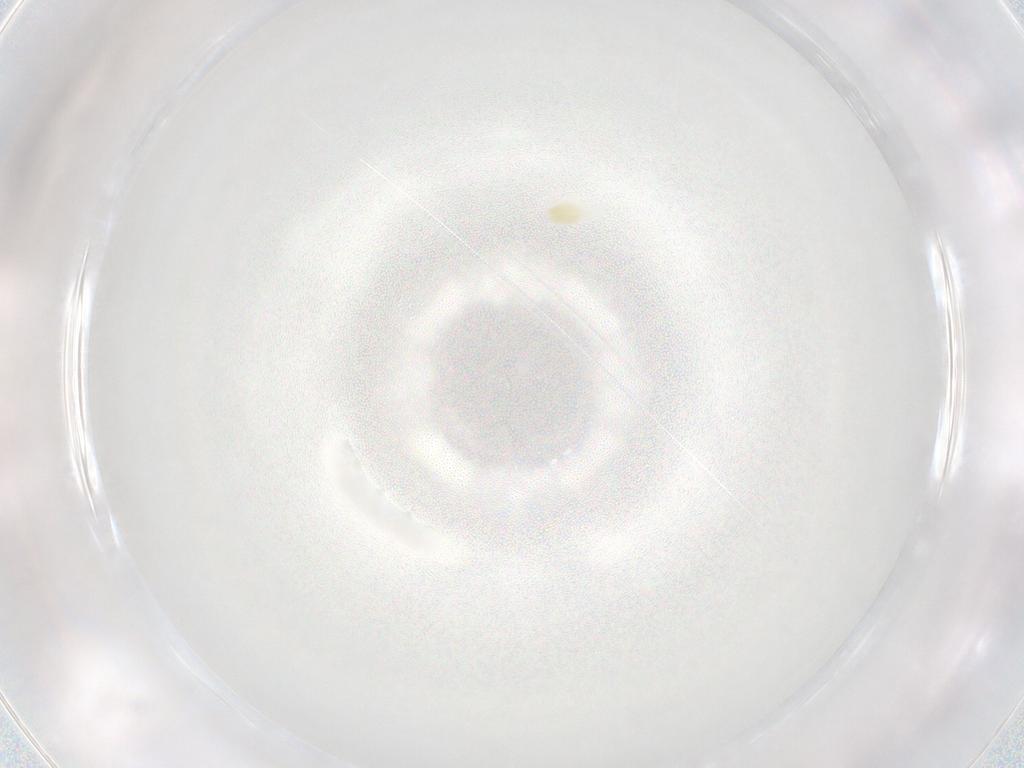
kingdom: Animalia
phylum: Arthropoda
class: Arachnida
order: Trombidiformes
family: Eupodidae
